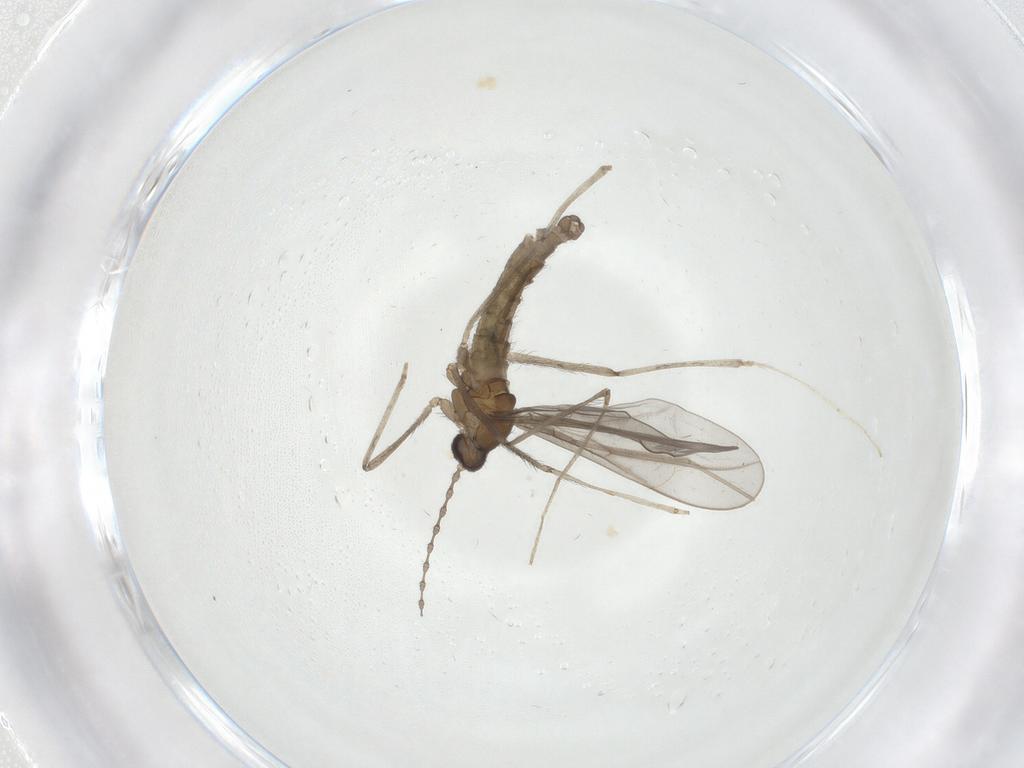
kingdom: Animalia
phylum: Arthropoda
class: Insecta
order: Diptera
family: Cecidomyiidae
